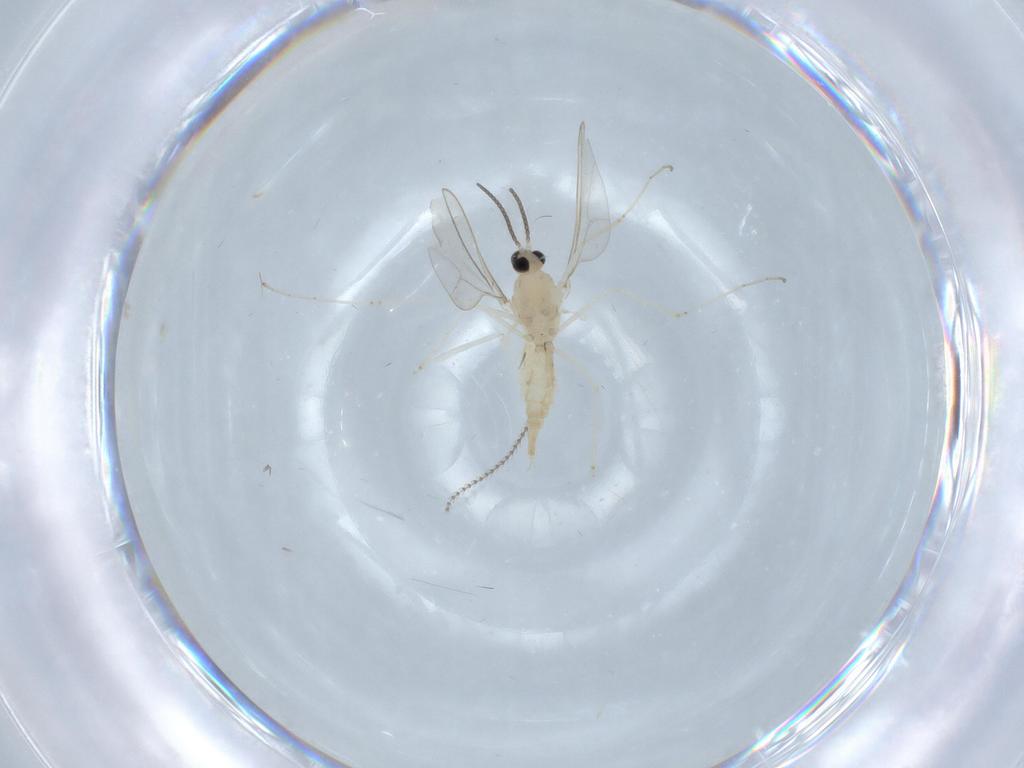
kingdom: Animalia
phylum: Arthropoda
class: Insecta
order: Diptera
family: Cecidomyiidae
